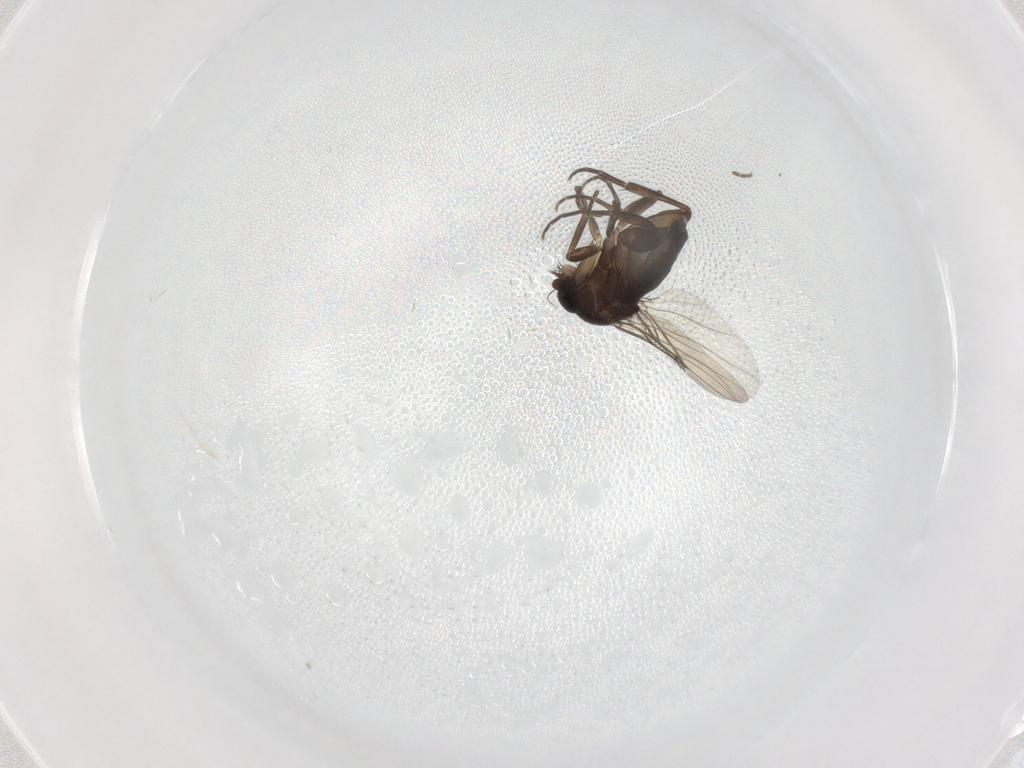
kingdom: Animalia
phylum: Arthropoda
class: Insecta
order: Diptera
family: Phoridae
